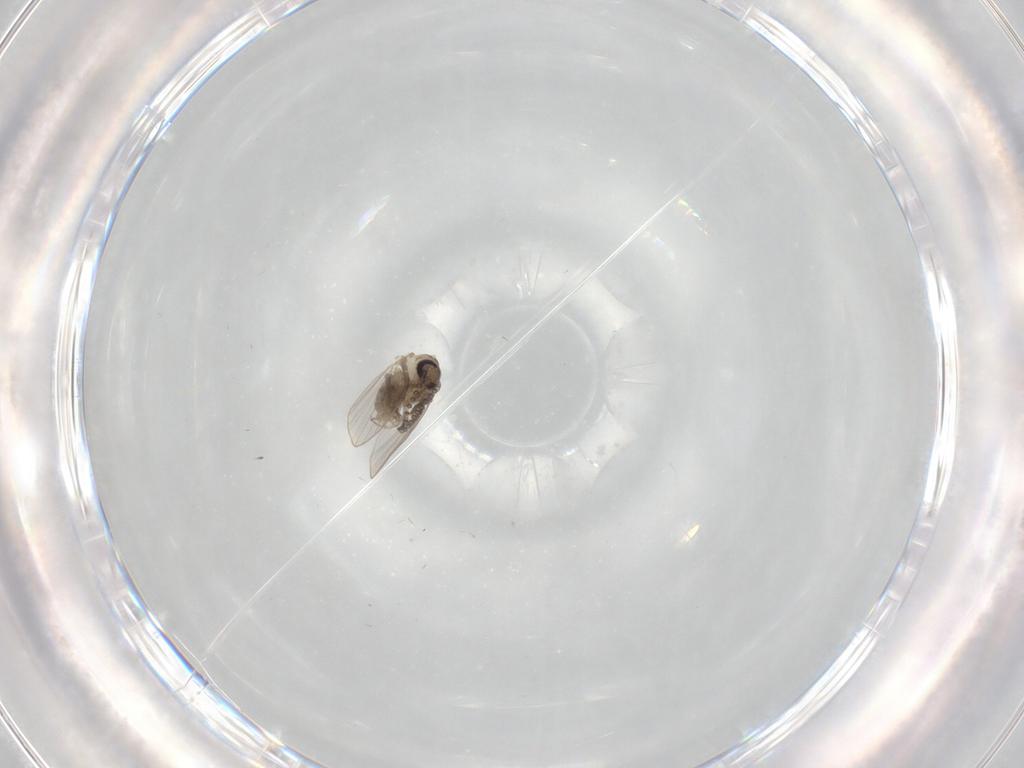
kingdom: Animalia
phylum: Arthropoda
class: Insecta
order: Diptera
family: Psychodidae
